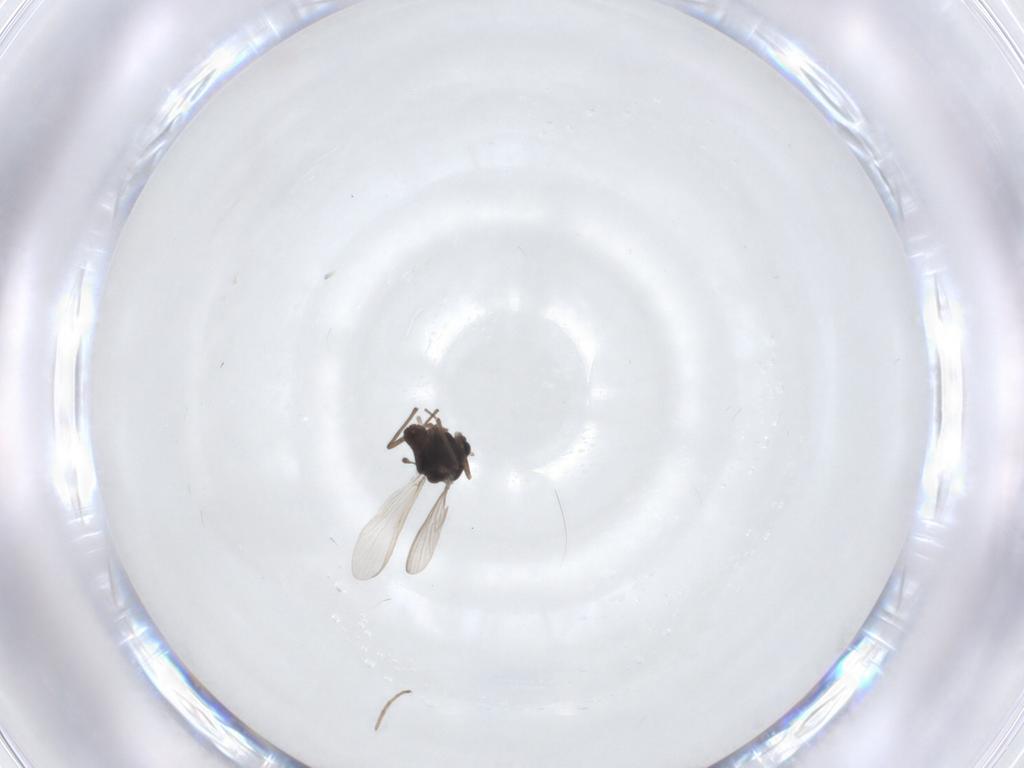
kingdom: Animalia
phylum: Arthropoda
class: Insecta
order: Diptera
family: Chironomidae
